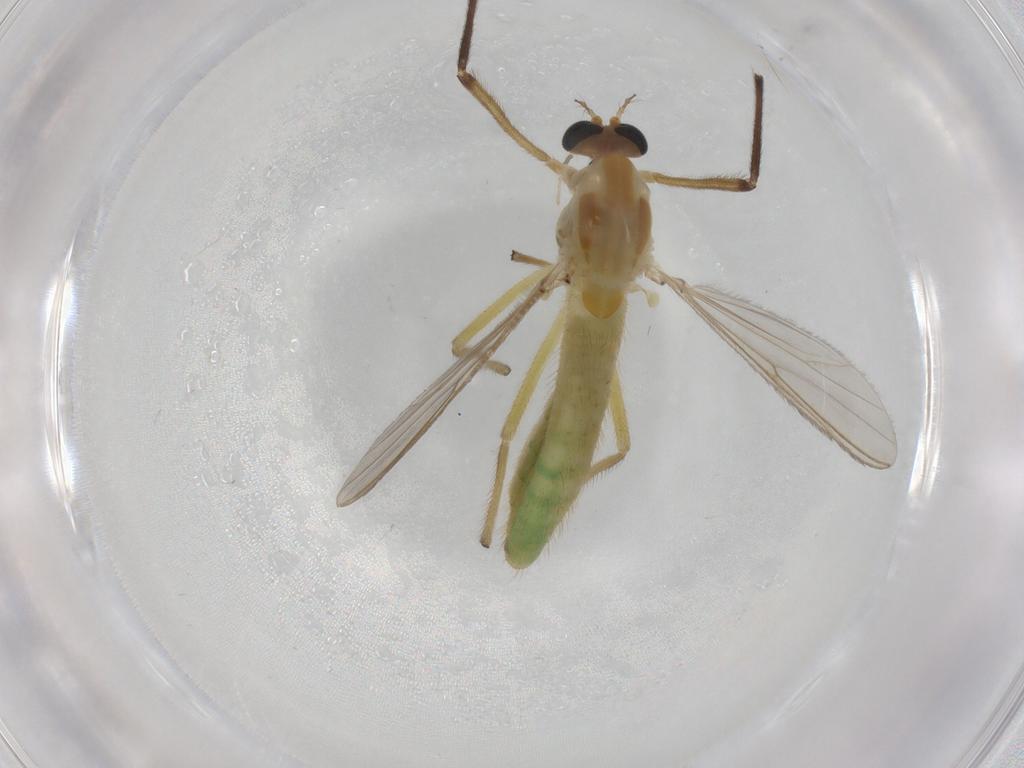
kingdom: Animalia
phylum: Arthropoda
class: Insecta
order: Diptera
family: Chironomidae
